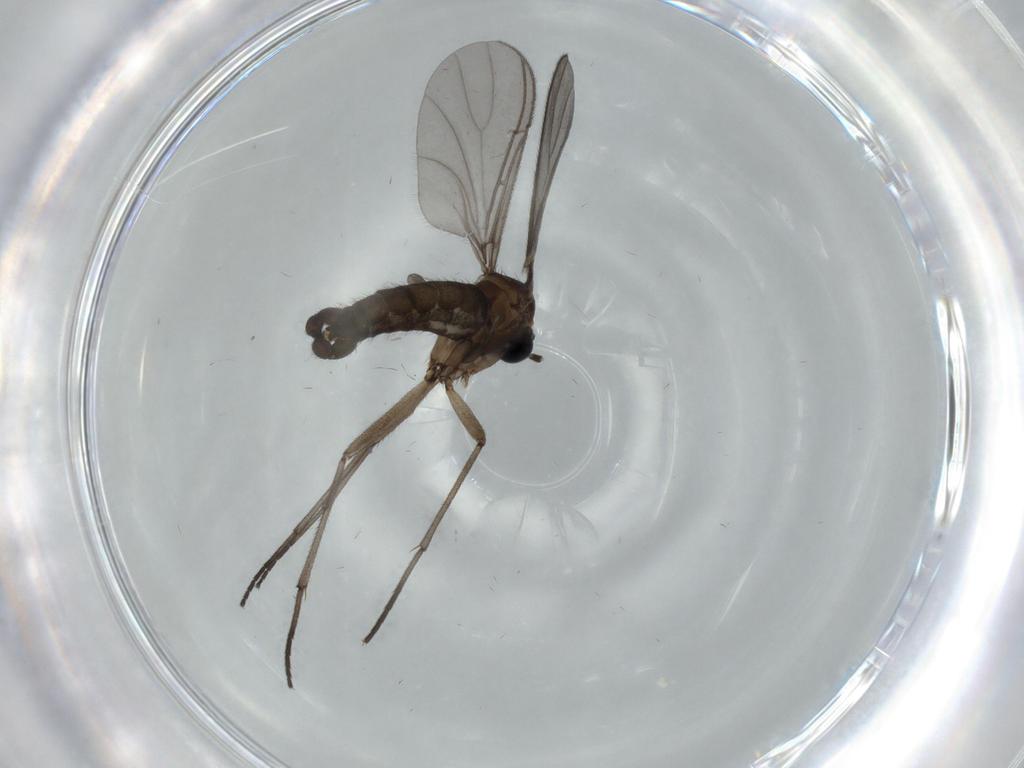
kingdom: Animalia
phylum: Arthropoda
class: Insecta
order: Diptera
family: Sciaridae
